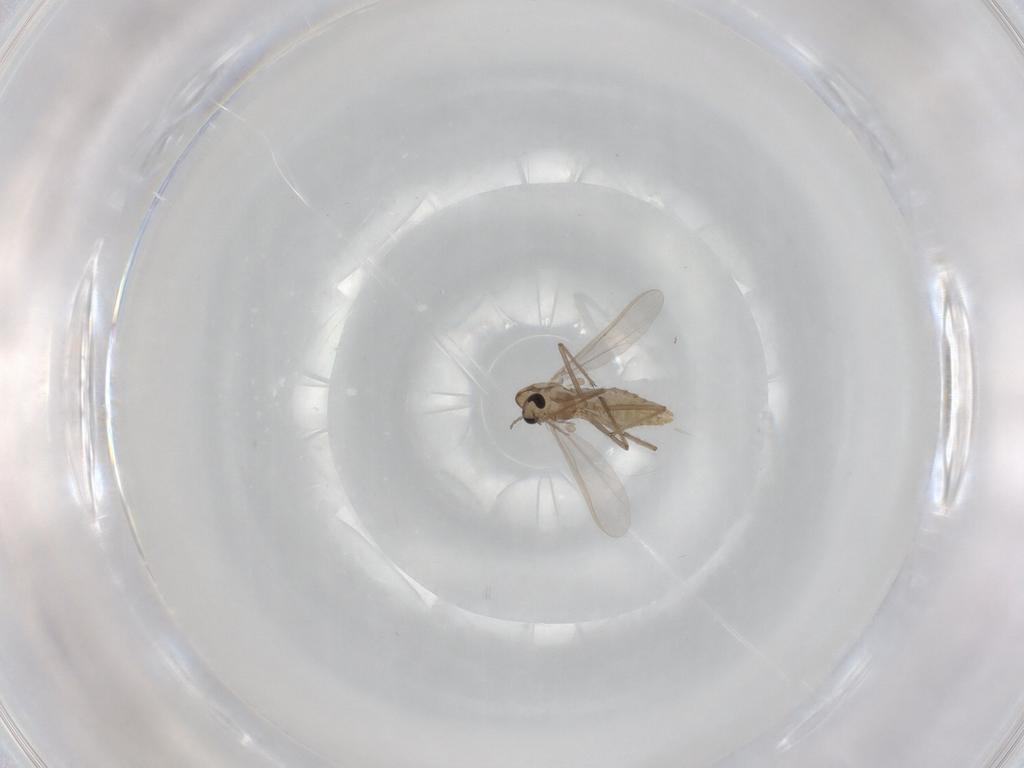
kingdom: Animalia
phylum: Arthropoda
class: Insecta
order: Diptera
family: Chironomidae
